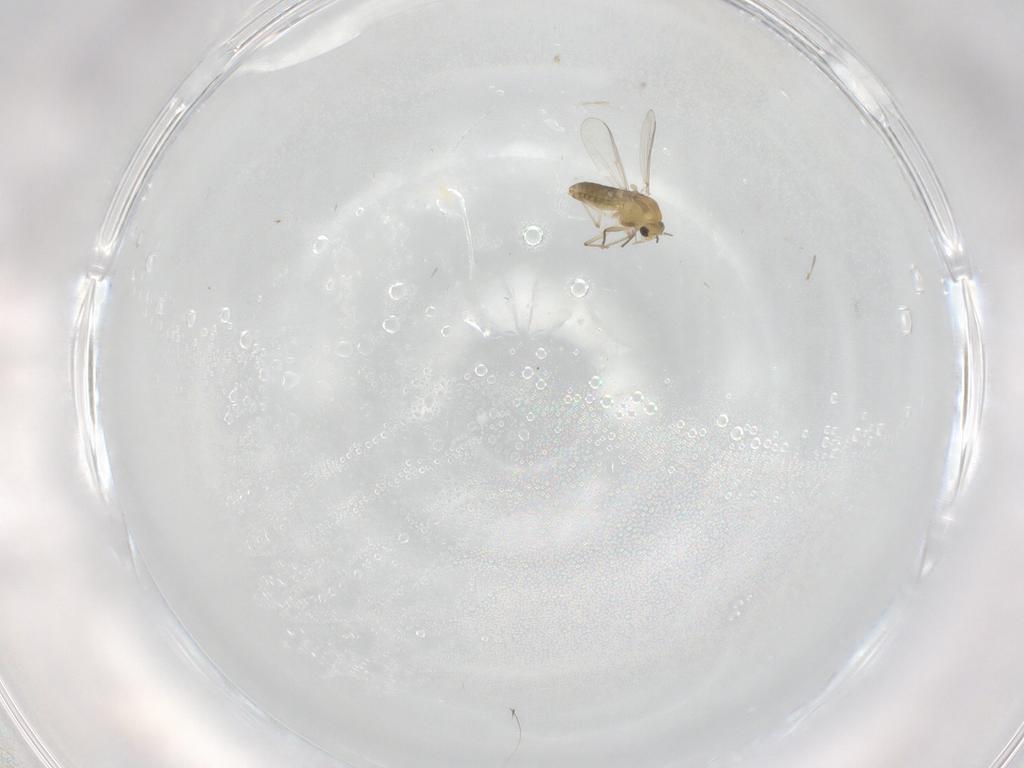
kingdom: Animalia
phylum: Arthropoda
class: Insecta
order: Diptera
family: Chironomidae
